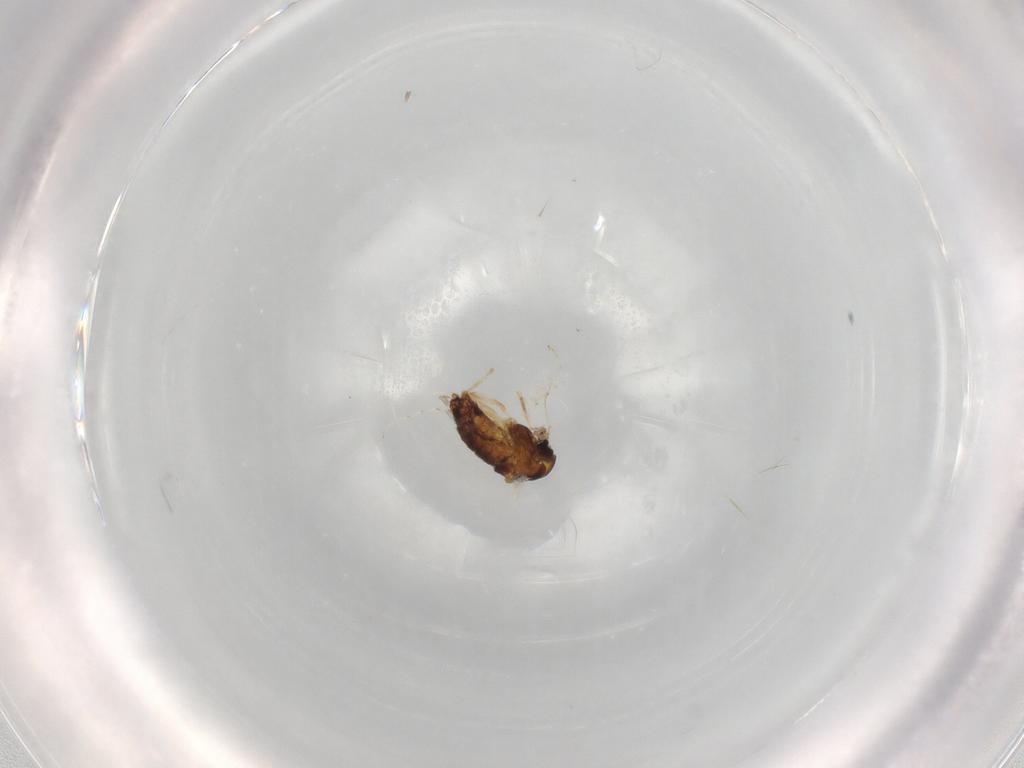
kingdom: Animalia
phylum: Arthropoda
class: Insecta
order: Diptera
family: Chironomidae
